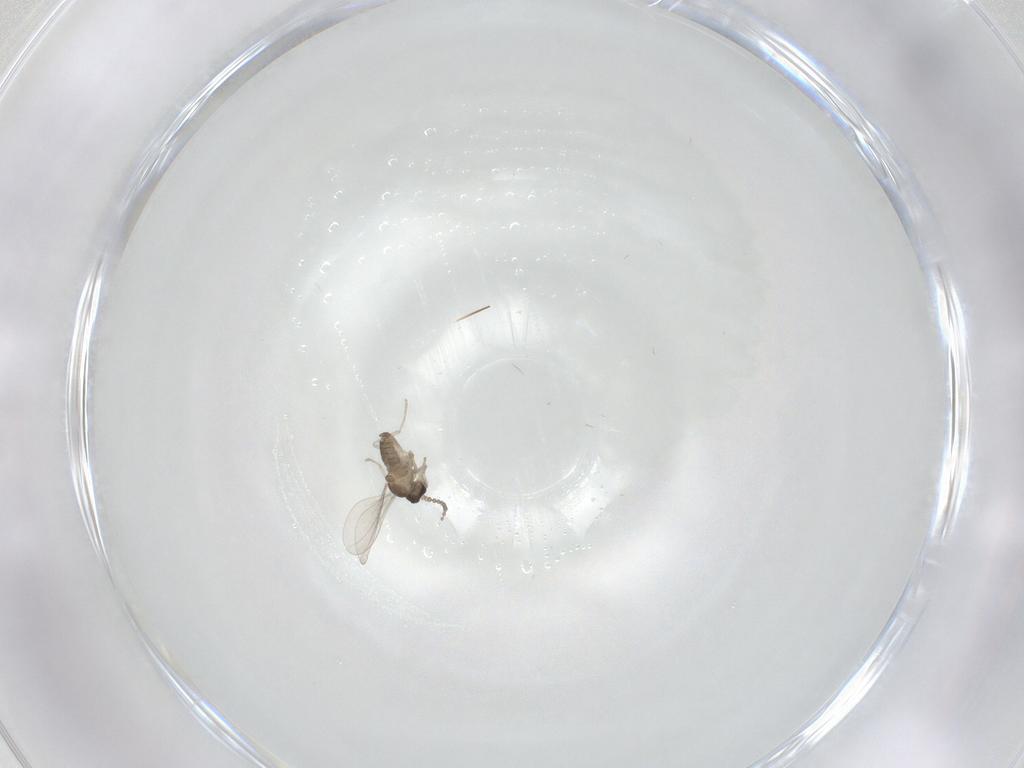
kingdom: Animalia
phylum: Arthropoda
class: Insecta
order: Diptera
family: Cecidomyiidae
